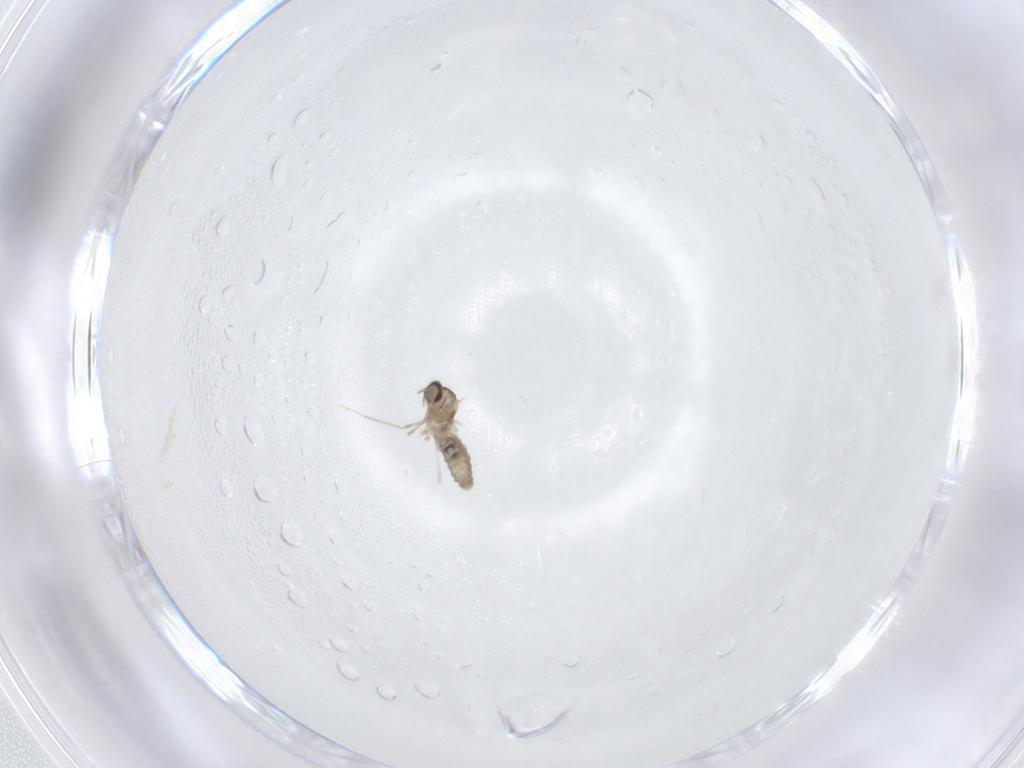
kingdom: Animalia
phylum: Arthropoda
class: Insecta
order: Diptera
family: Cecidomyiidae
